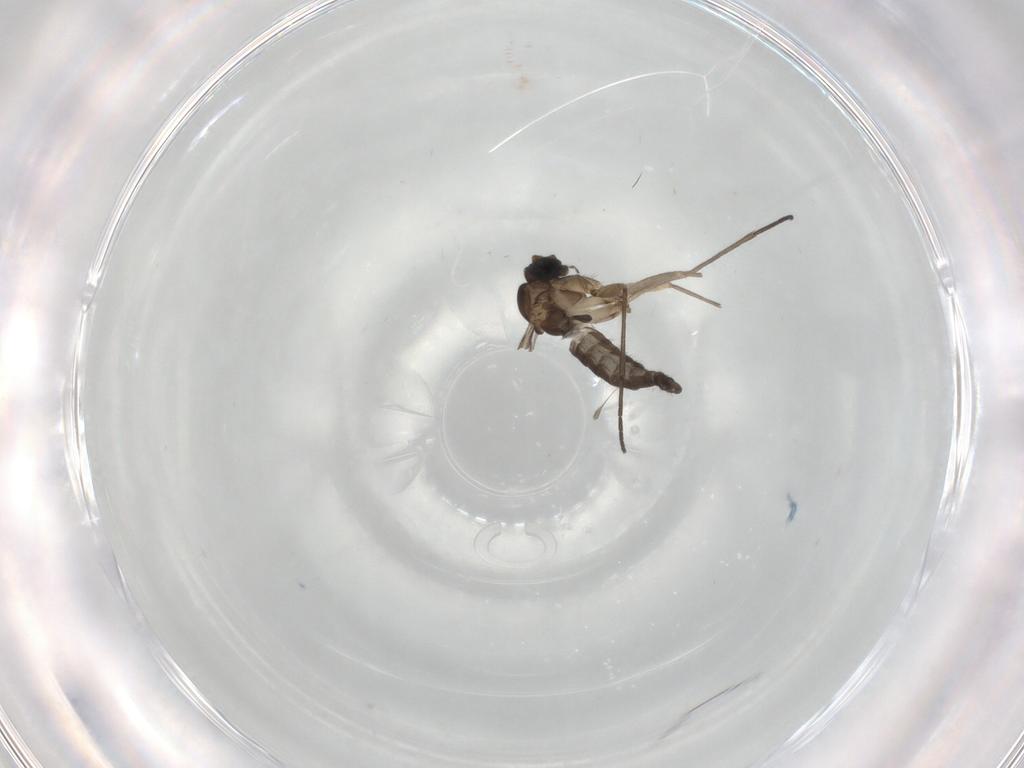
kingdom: Animalia
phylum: Arthropoda
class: Insecta
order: Diptera
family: Sciaridae
